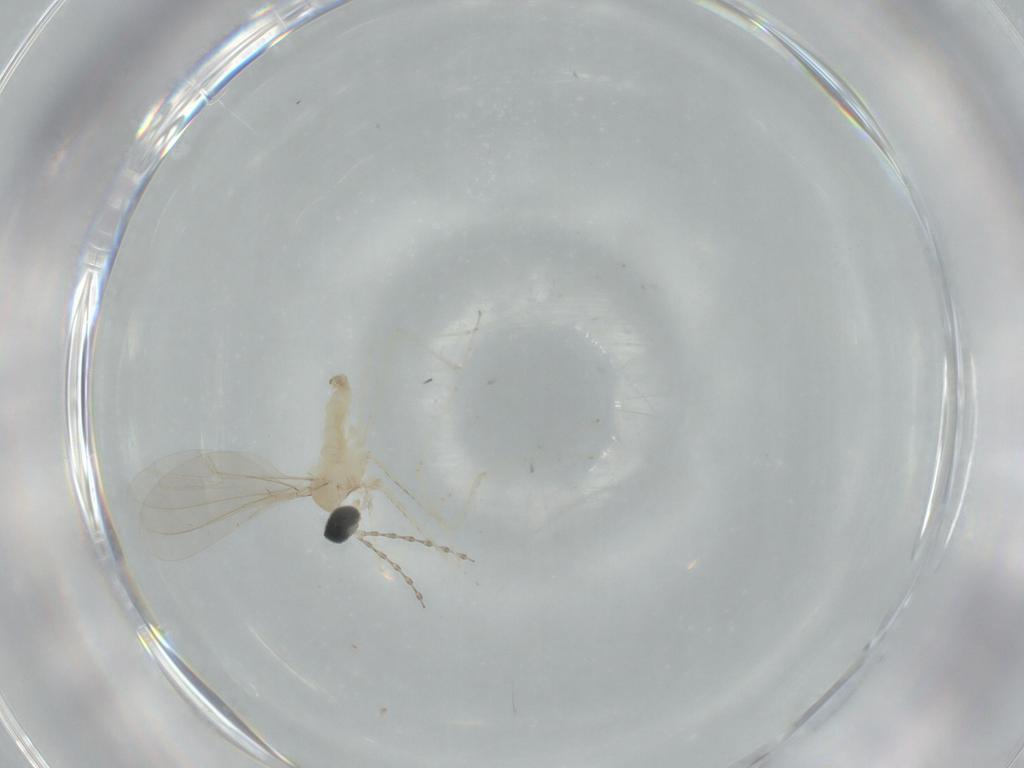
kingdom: Animalia
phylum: Arthropoda
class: Insecta
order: Diptera
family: Cecidomyiidae
